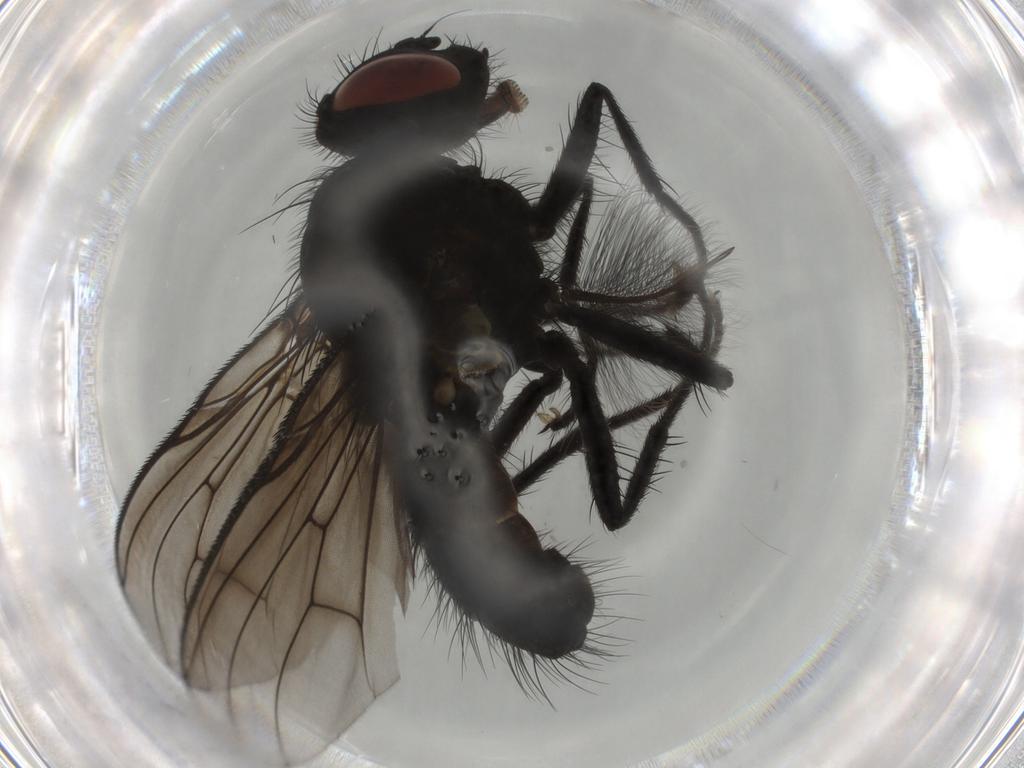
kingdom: Animalia
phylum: Arthropoda
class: Insecta
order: Diptera
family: Muscidae
